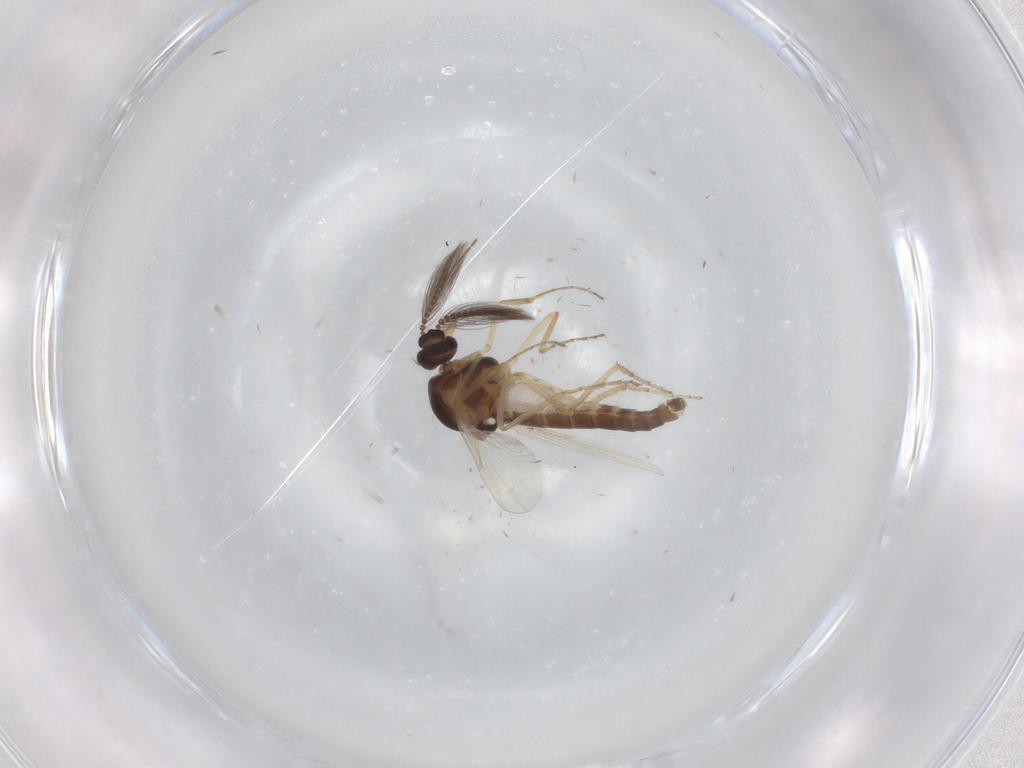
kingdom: Animalia
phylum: Arthropoda
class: Insecta
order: Diptera
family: Ceratopogonidae
